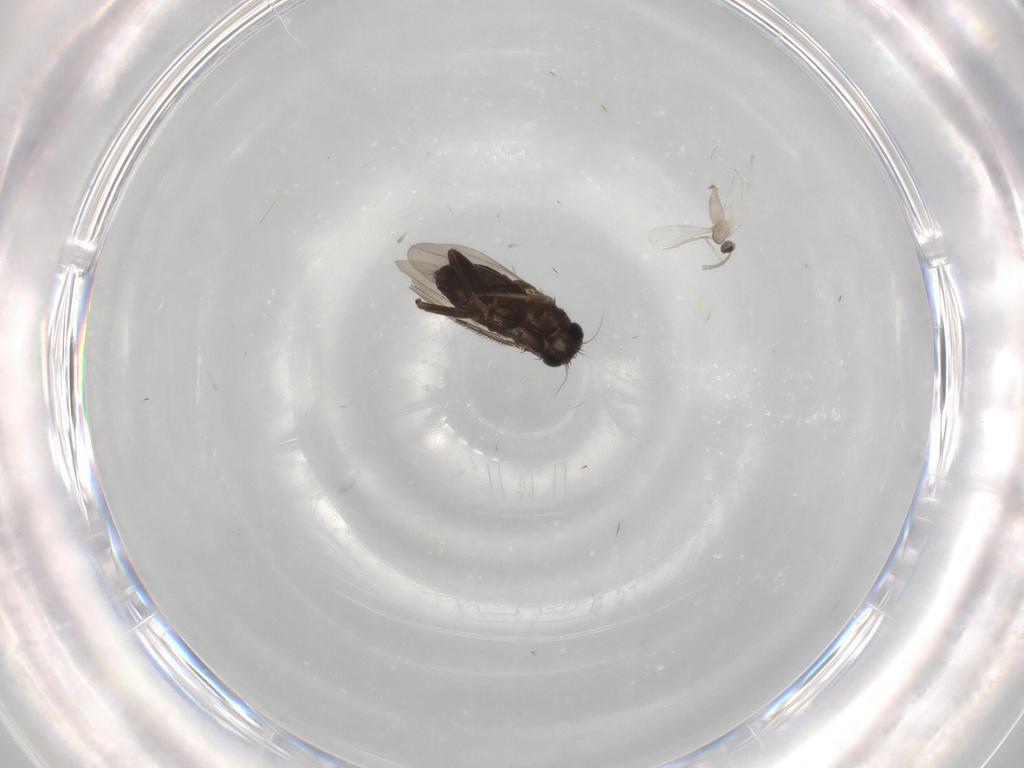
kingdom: Animalia
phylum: Arthropoda
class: Insecta
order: Diptera
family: Chironomidae
